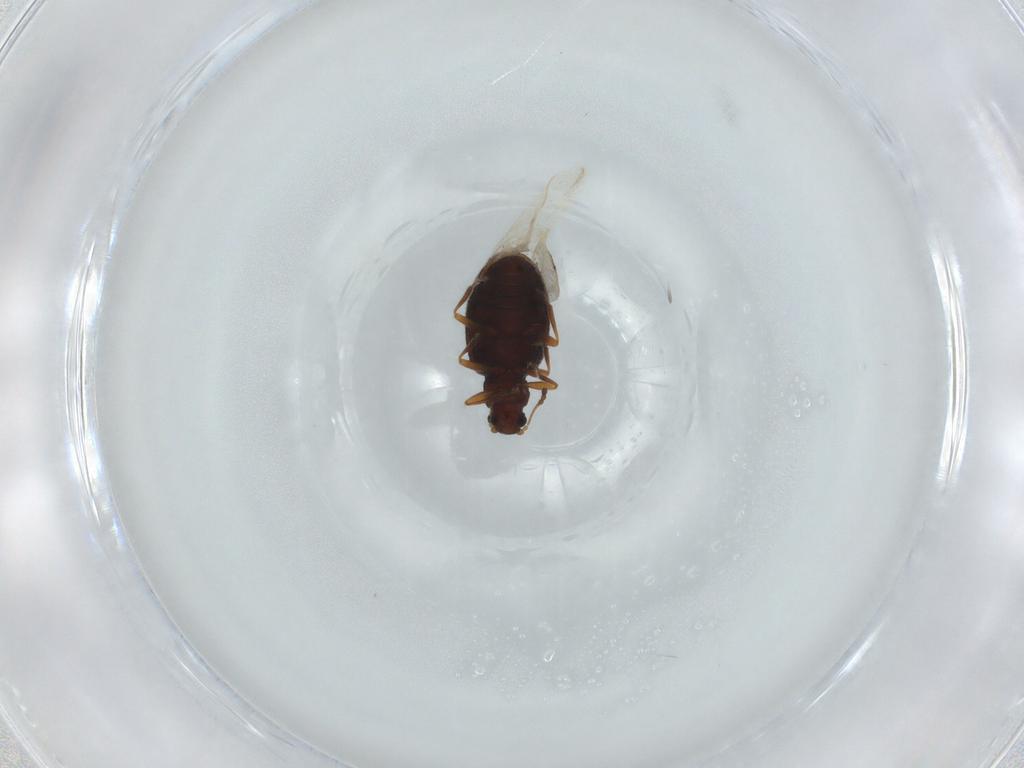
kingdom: Animalia
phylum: Arthropoda
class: Insecta
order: Coleoptera
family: Latridiidae
